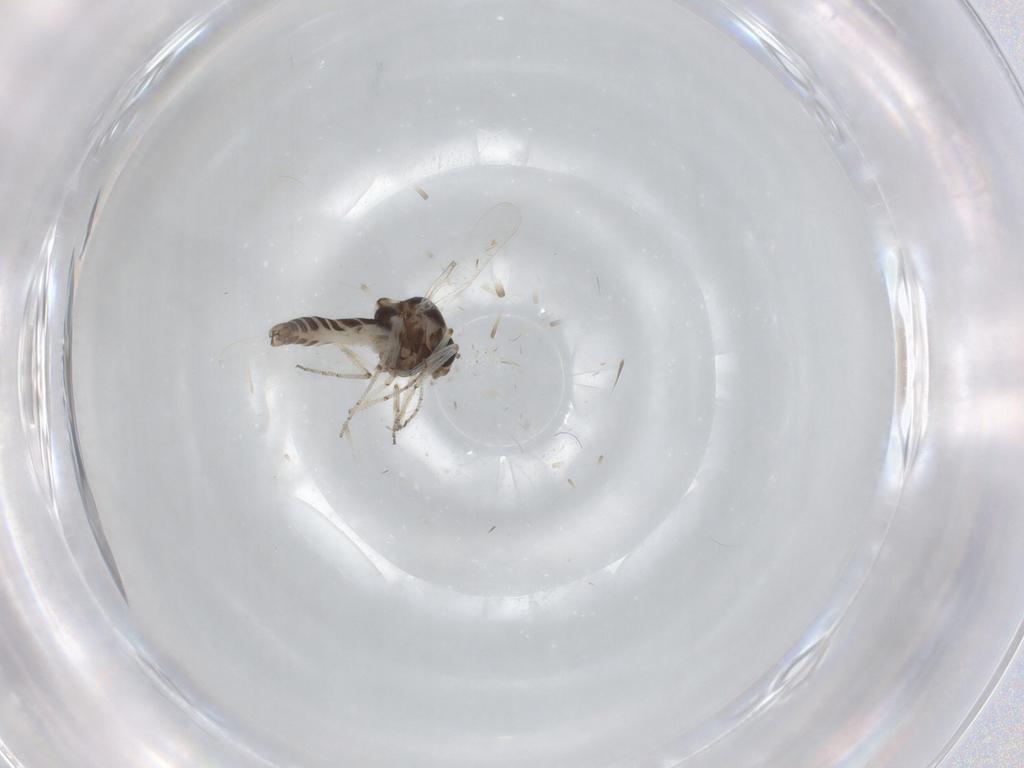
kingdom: Animalia
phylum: Arthropoda
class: Insecta
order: Diptera
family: Ceratopogonidae
